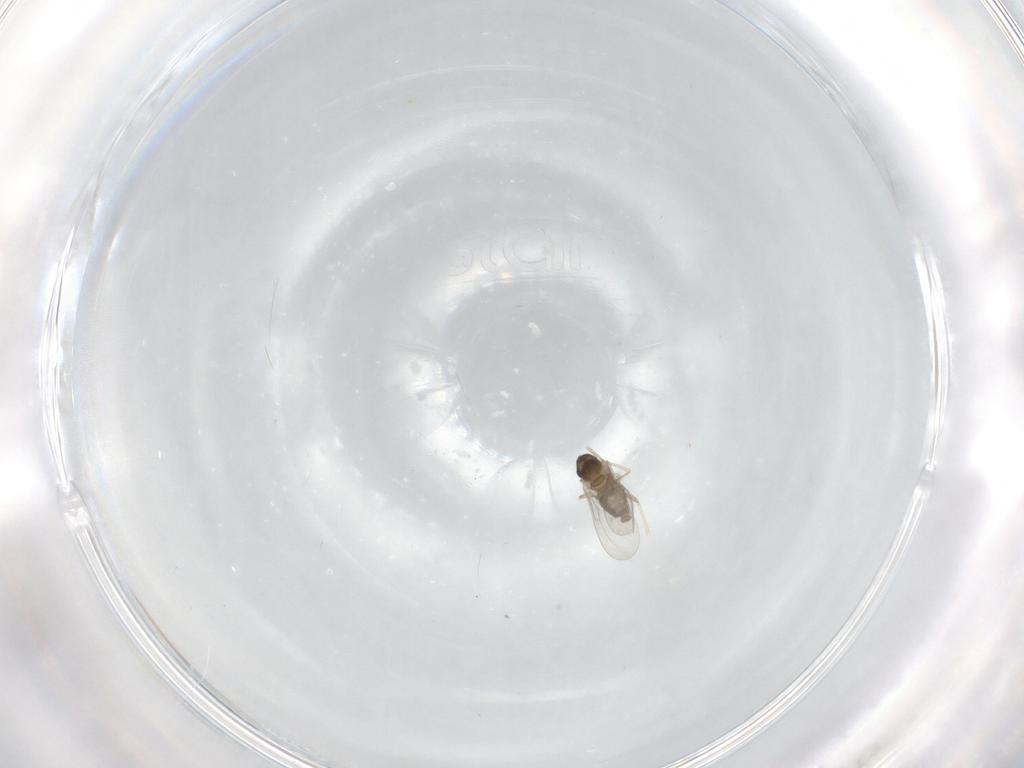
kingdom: Animalia
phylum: Arthropoda
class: Insecta
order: Diptera
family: Cecidomyiidae
